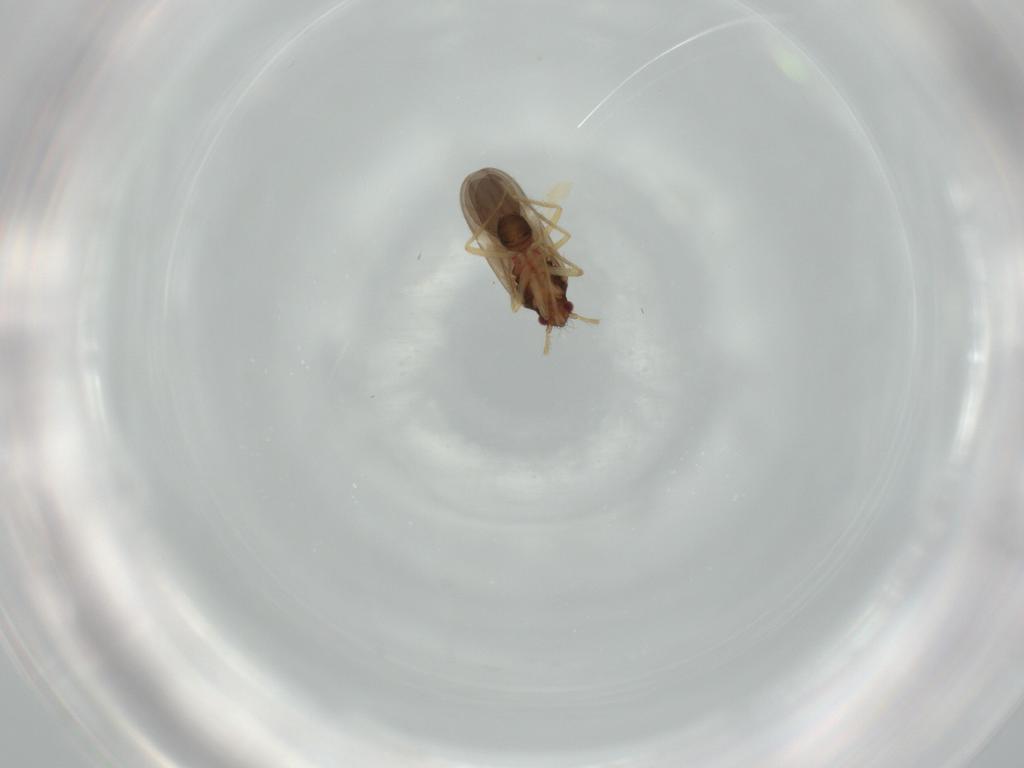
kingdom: Animalia
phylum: Arthropoda
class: Insecta
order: Hemiptera
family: Ceratocombidae
